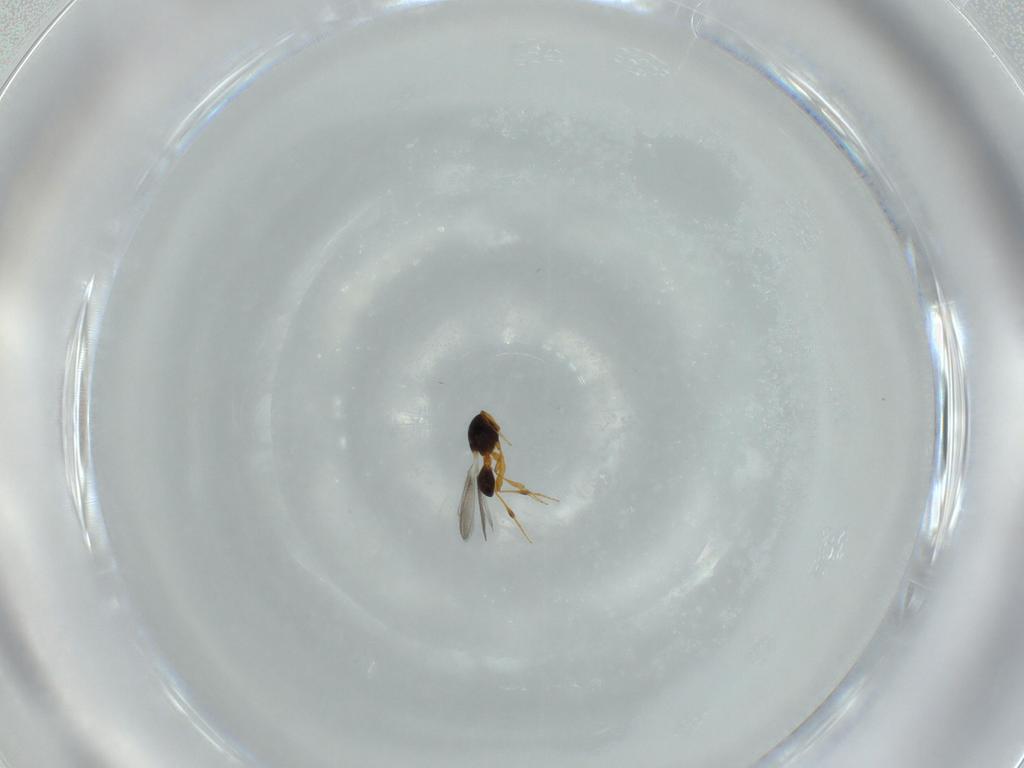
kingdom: Animalia
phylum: Arthropoda
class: Insecta
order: Hymenoptera
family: Platygastridae
